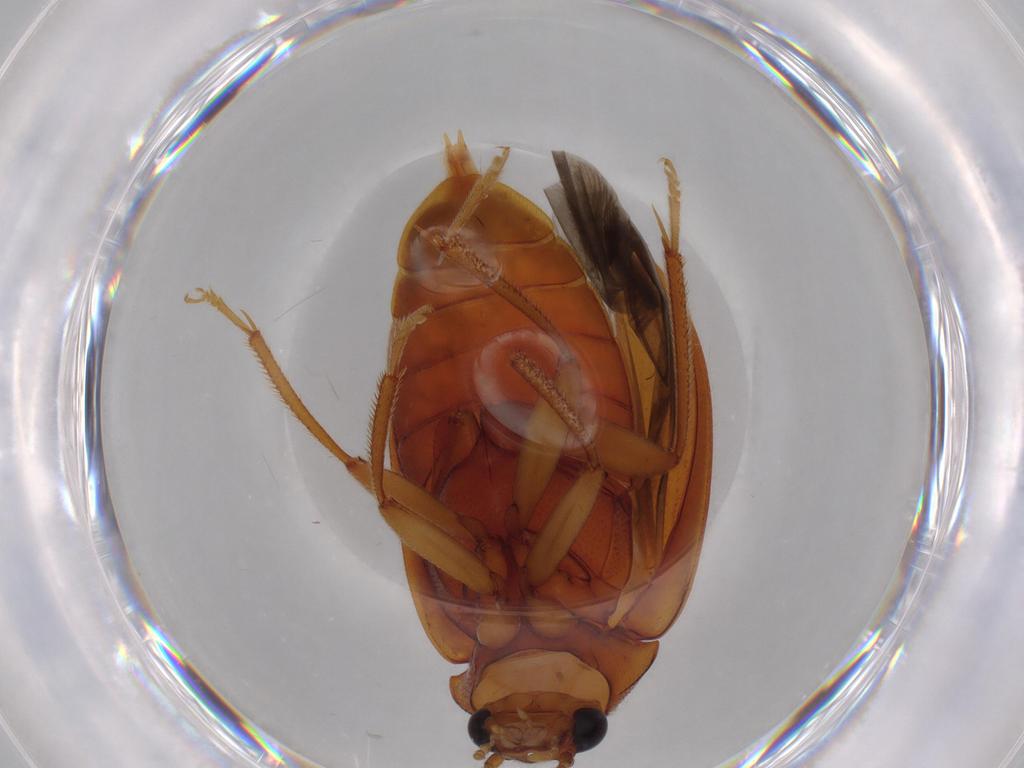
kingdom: Animalia
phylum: Arthropoda
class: Insecta
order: Coleoptera
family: Ptilodactylidae
